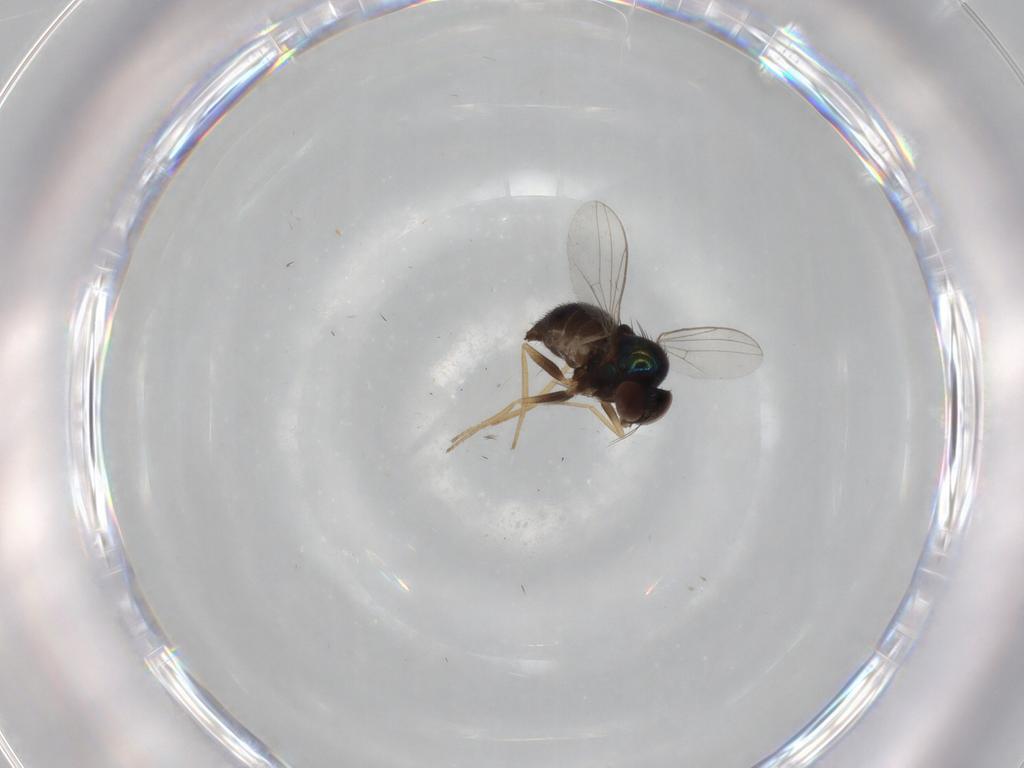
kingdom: Animalia
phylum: Arthropoda
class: Insecta
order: Diptera
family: Dolichopodidae
